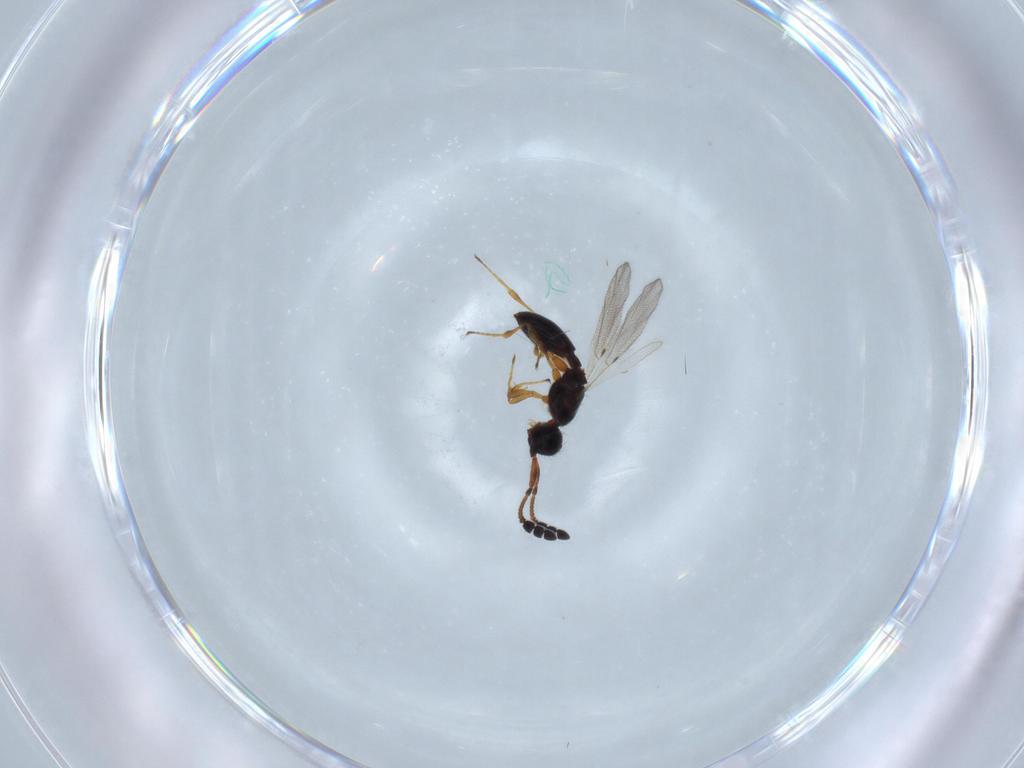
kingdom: Animalia
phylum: Arthropoda
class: Insecta
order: Hymenoptera
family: Diapriidae
